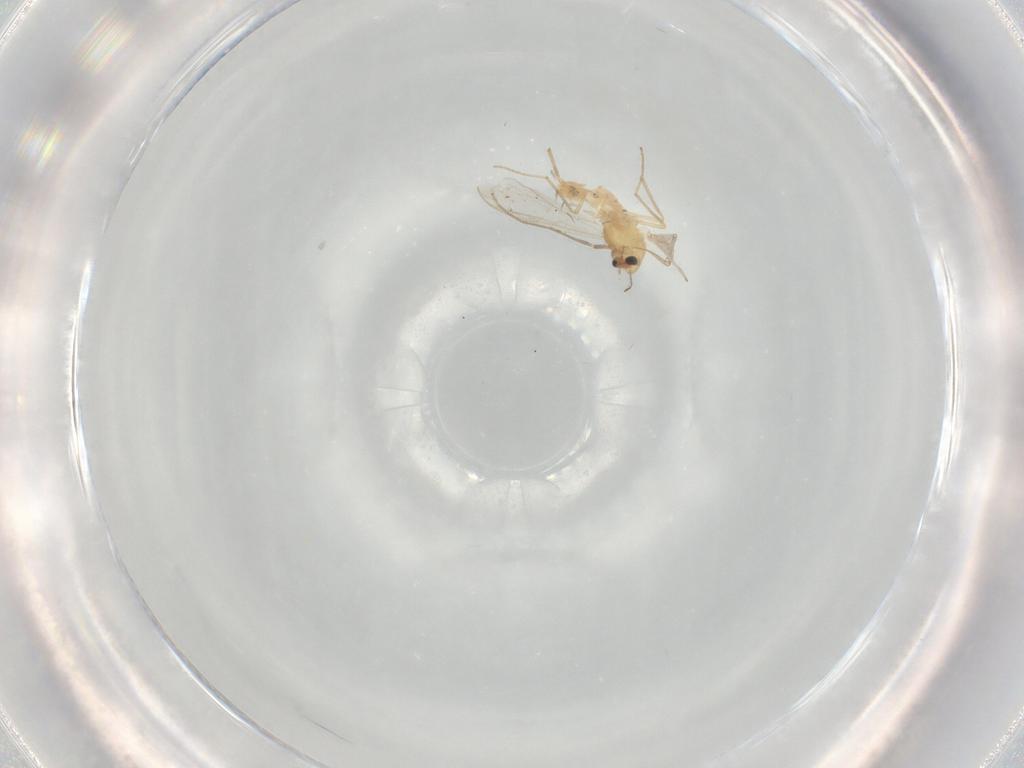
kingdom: Animalia
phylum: Arthropoda
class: Insecta
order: Diptera
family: Chironomidae
